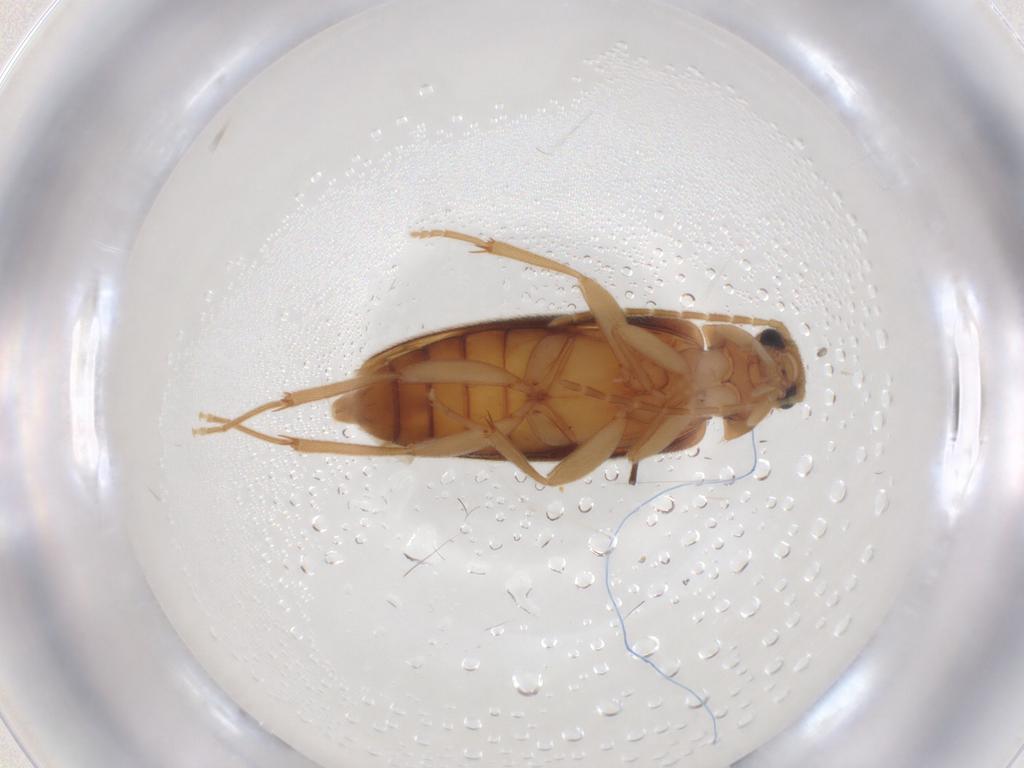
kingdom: Animalia
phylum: Arthropoda
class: Insecta
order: Coleoptera
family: Scraptiidae
